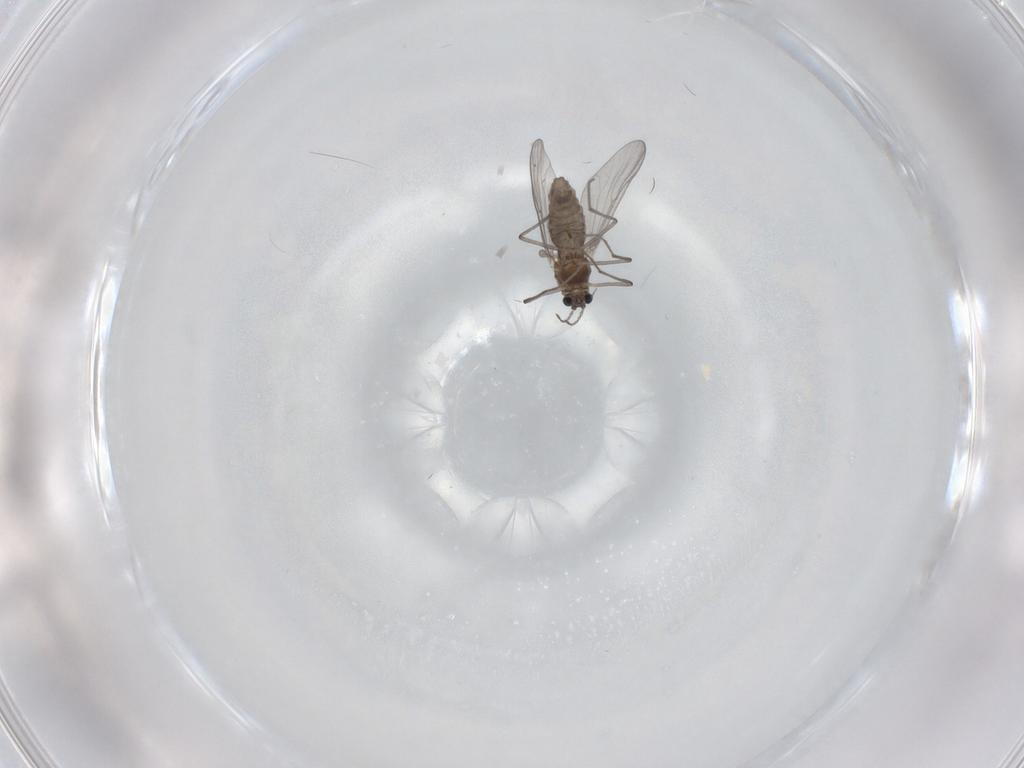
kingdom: Animalia
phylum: Arthropoda
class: Insecta
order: Diptera
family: Chironomidae
